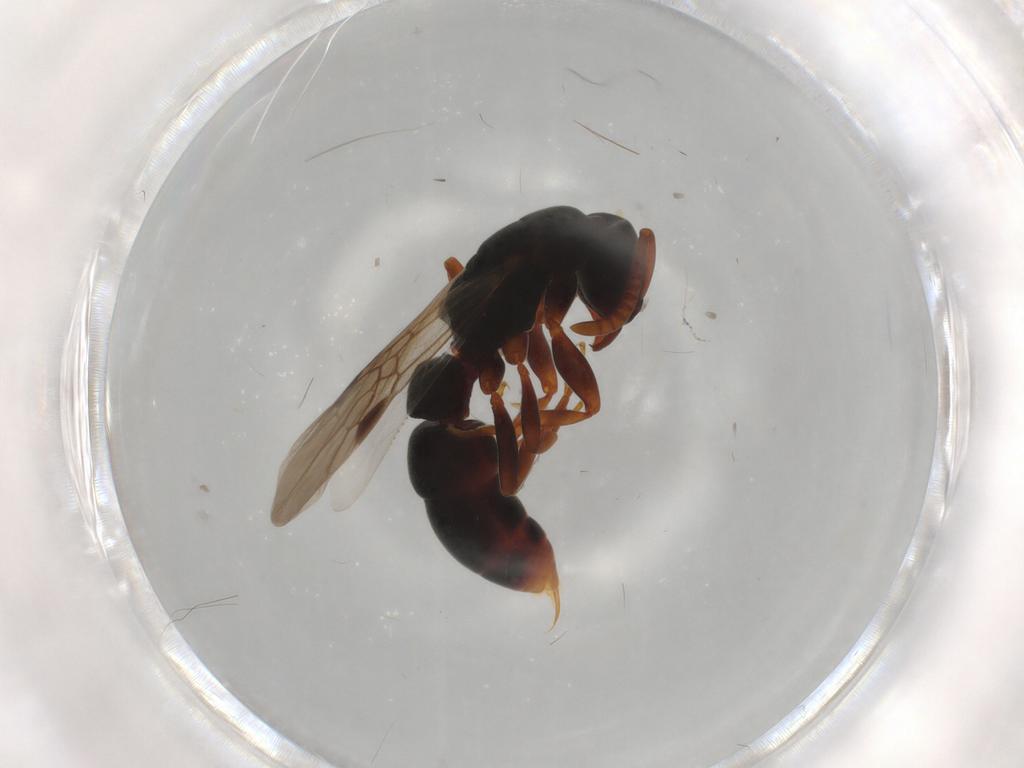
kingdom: Animalia
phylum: Arthropoda
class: Insecta
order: Hymenoptera
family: Formicidae
